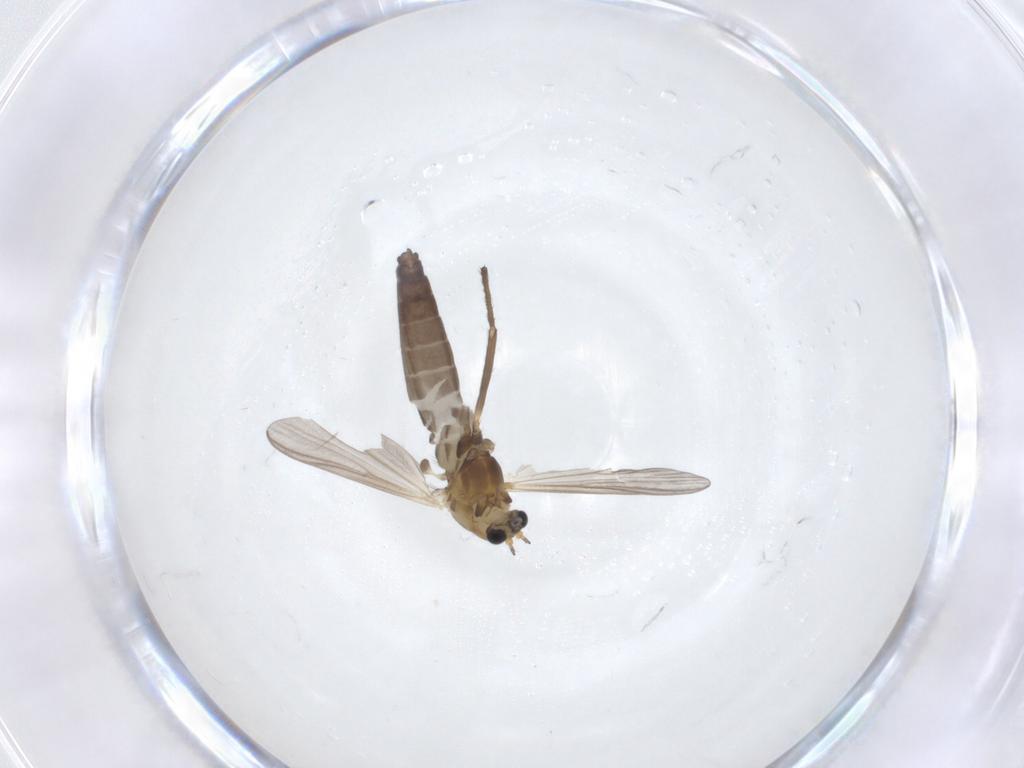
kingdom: Animalia
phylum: Arthropoda
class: Insecta
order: Diptera
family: Chironomidae
